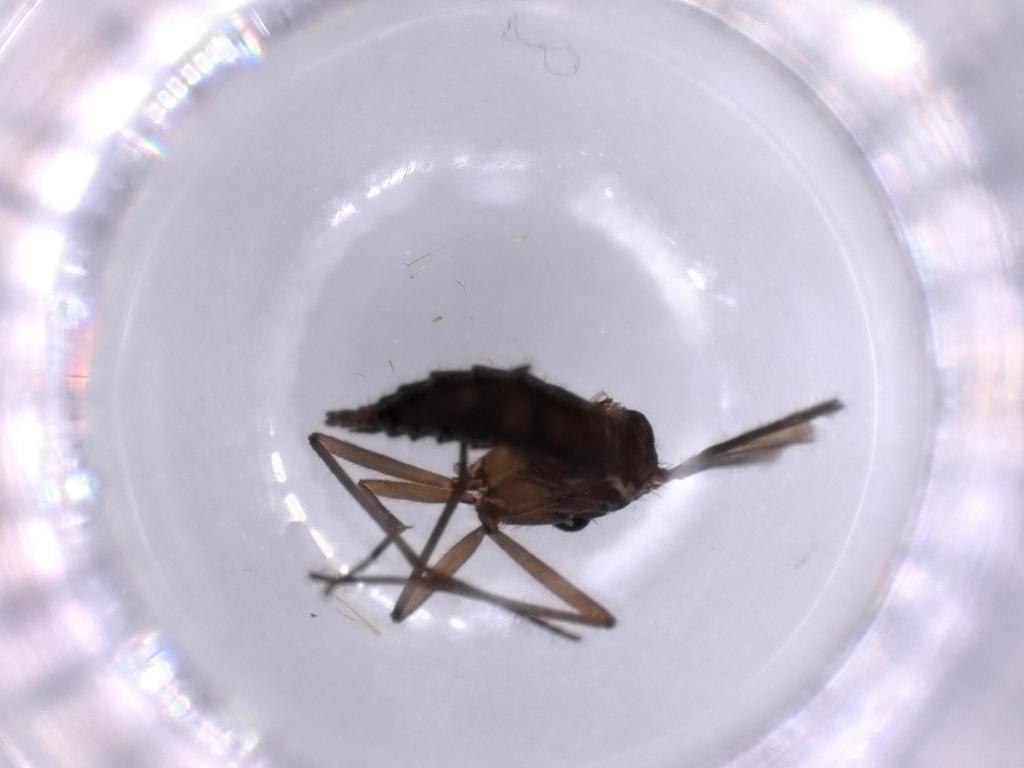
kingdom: Animalia
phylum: Arthropoda
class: Insecta
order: Diptera
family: Sciaridae
